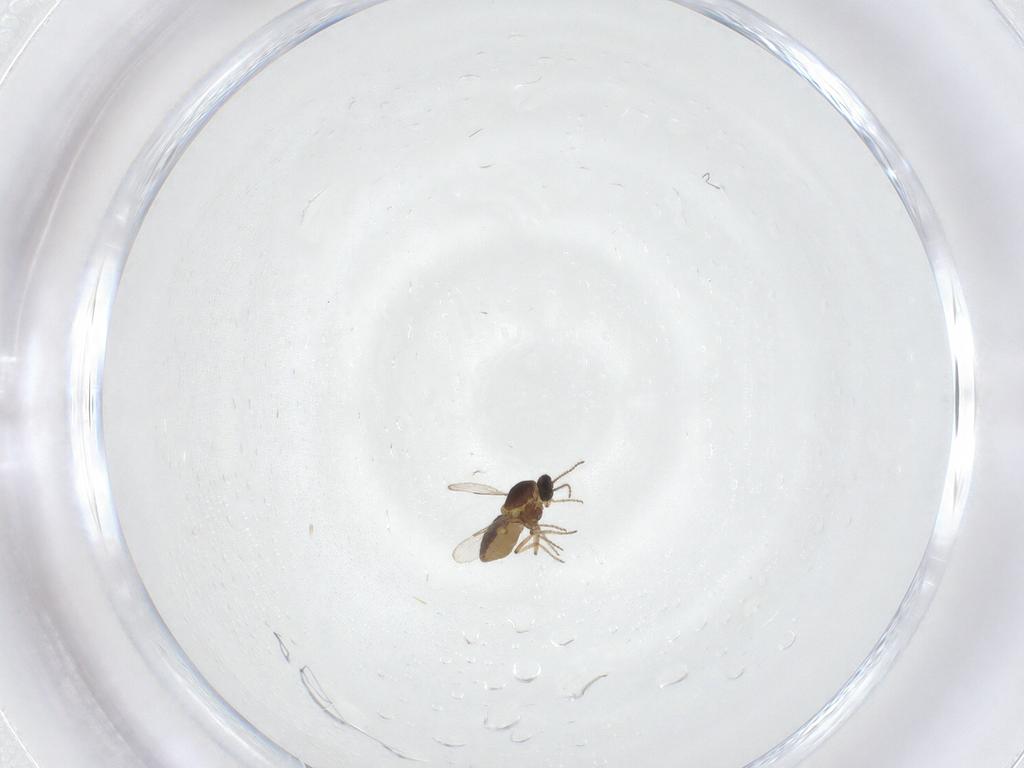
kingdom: Animalia
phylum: Arthropoda
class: Insecta
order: Diptera
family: Ceratopogonidae
